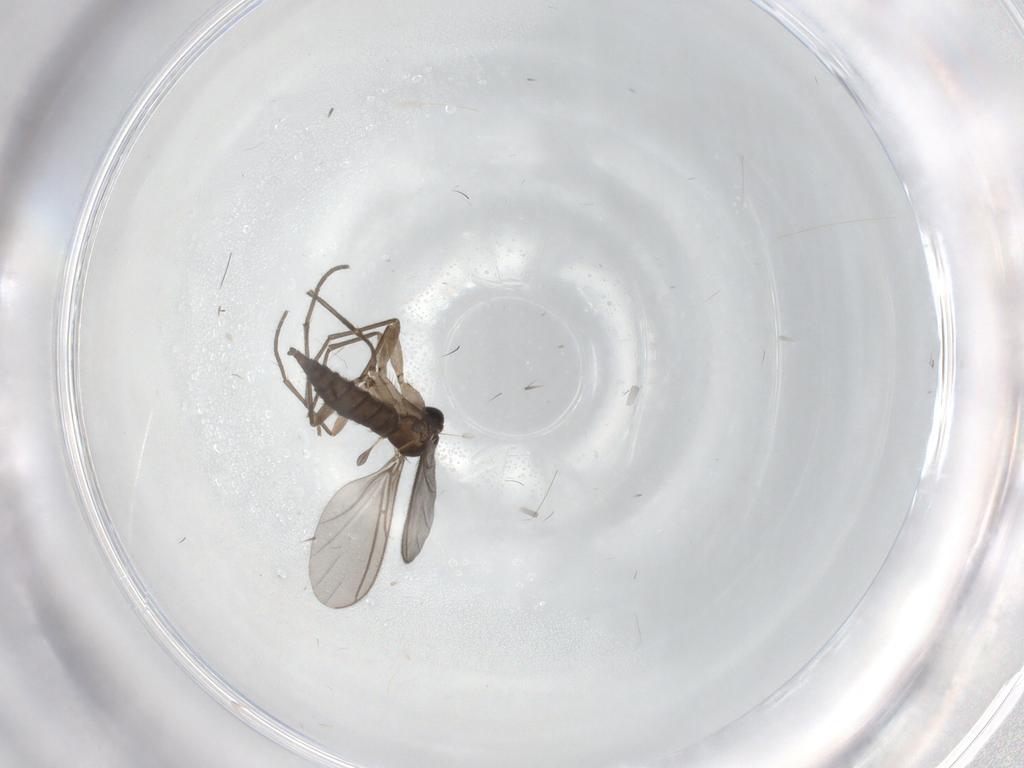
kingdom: Animalia
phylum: Arthropoda
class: Insecta
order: Diptera
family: Sciaridae
